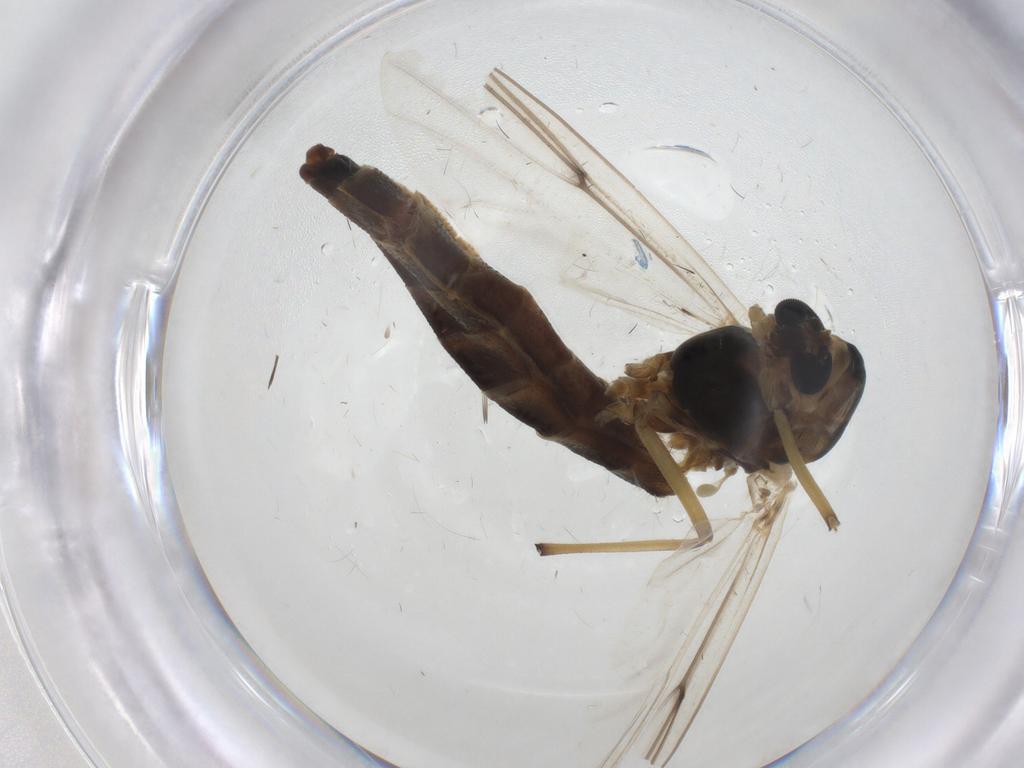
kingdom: Animalia
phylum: Arthropoda
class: Insecta
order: Diptera
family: Chironomidae
